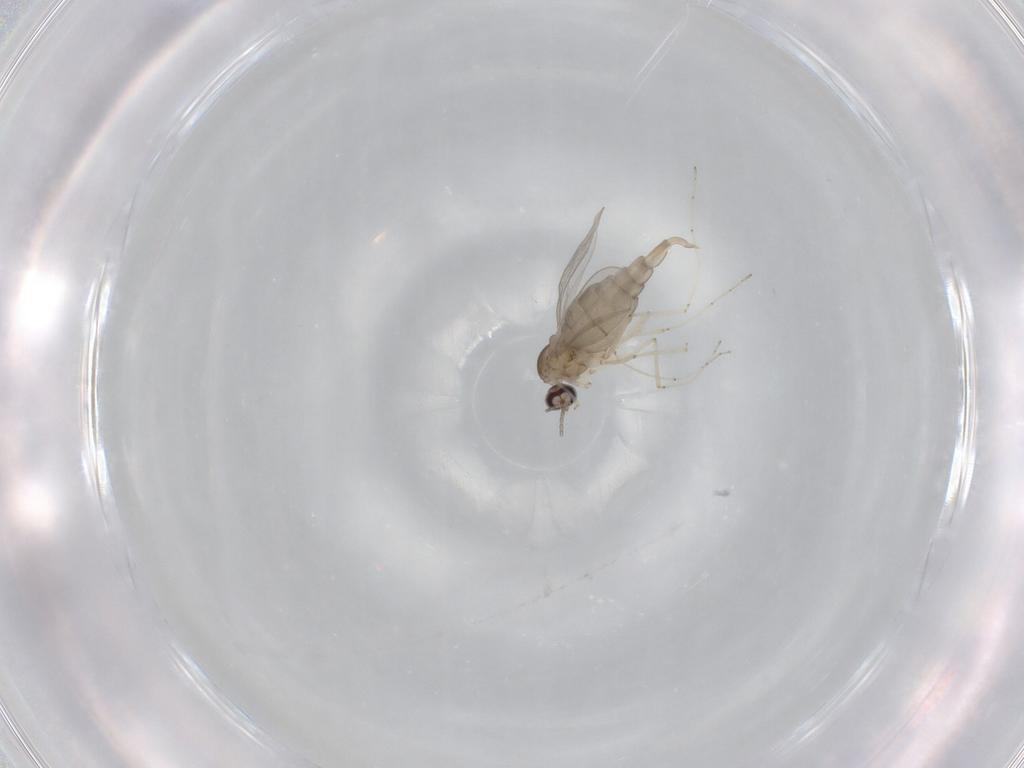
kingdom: Animalia
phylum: Arthropoda
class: Insecta
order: Diptera
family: Cecidomyiidae
